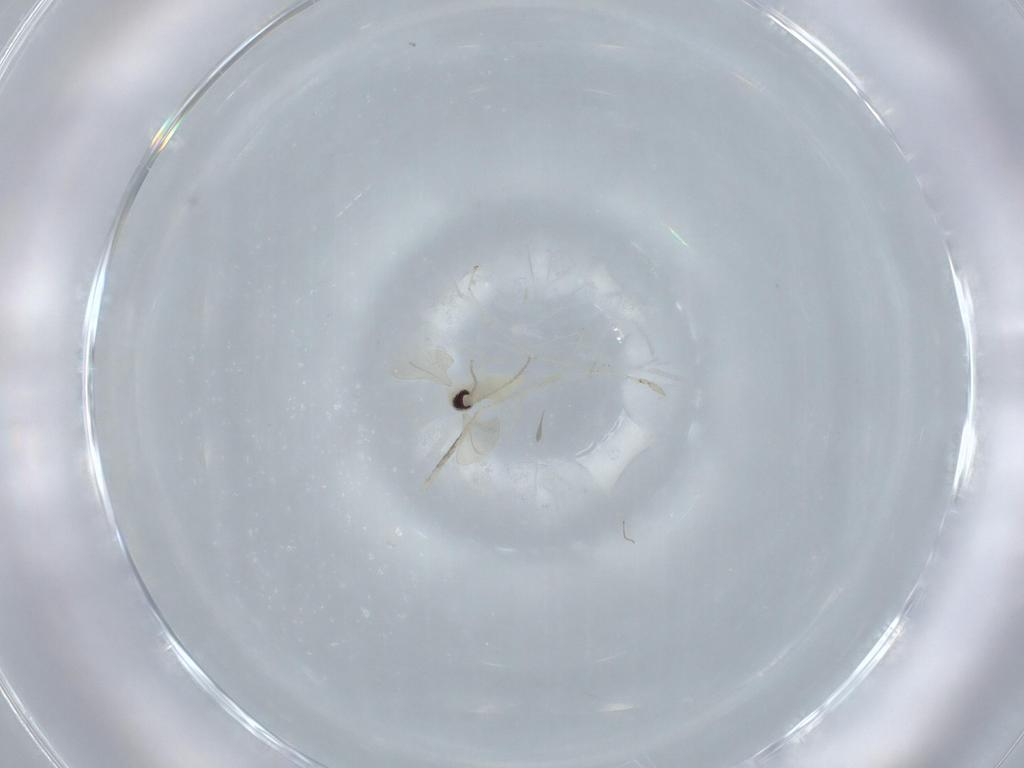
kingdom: Animalia
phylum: Arthropoda
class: Insecta
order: Diptera
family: Cecidomyiidae
